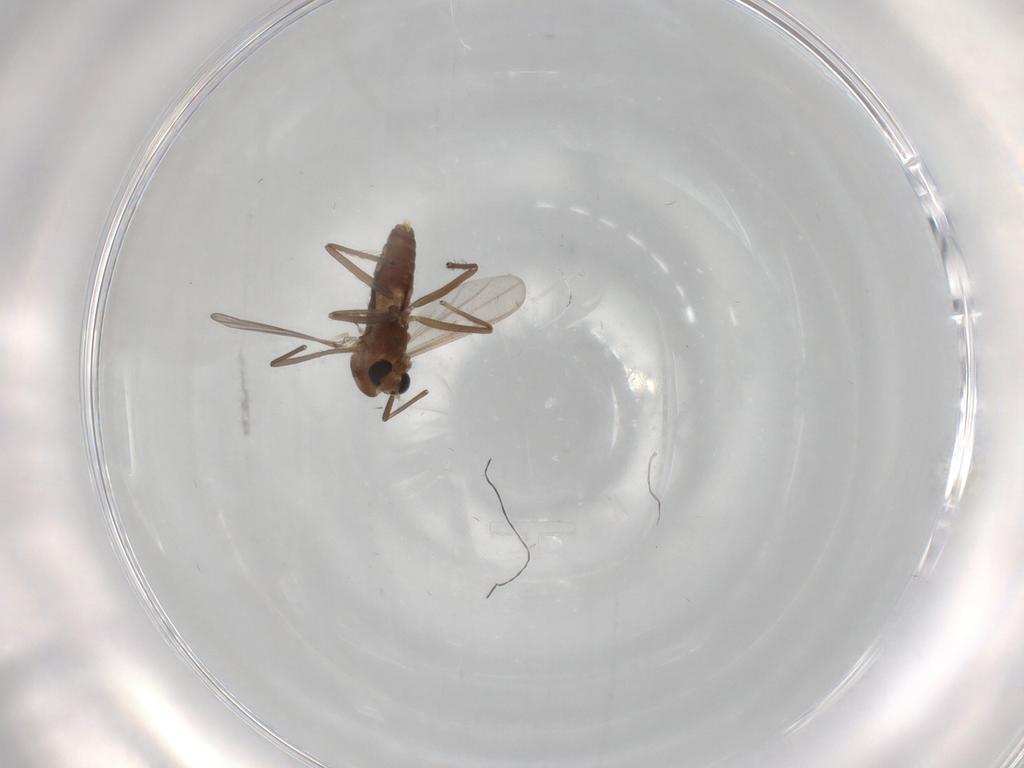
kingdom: Animalia
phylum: Arthropoda
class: Insecta
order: Diptera
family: Chironomidae
